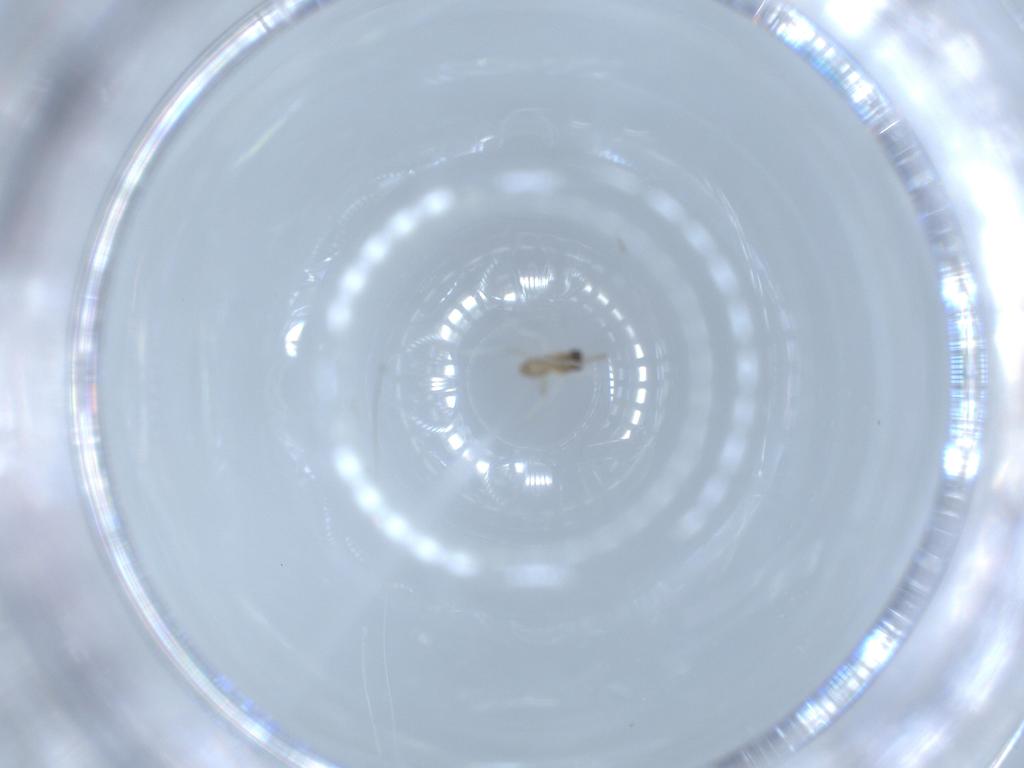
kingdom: Animalia
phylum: Arthropoda
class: Insecta
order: Diptera
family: Cecidomyiidae
